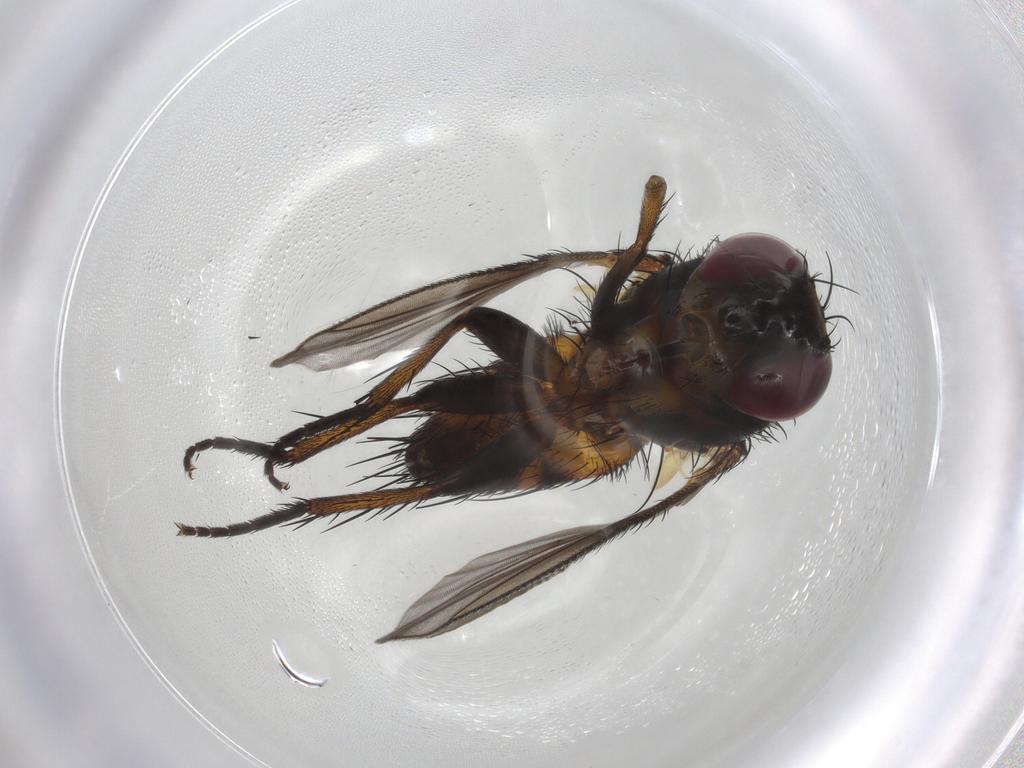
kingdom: Animalia
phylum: Arthropoda
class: Insecta
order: Diptera
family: Tachinidae
